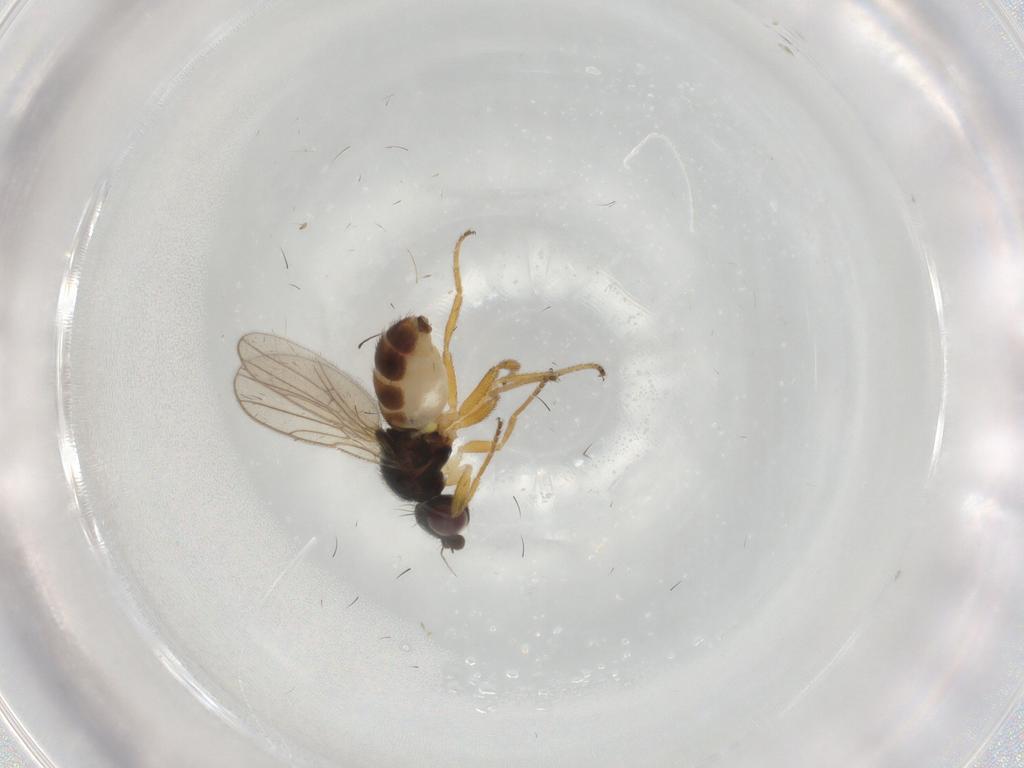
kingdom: Animalia
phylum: Arthropoda
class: Insecta
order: Diptera
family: Chloropidae
